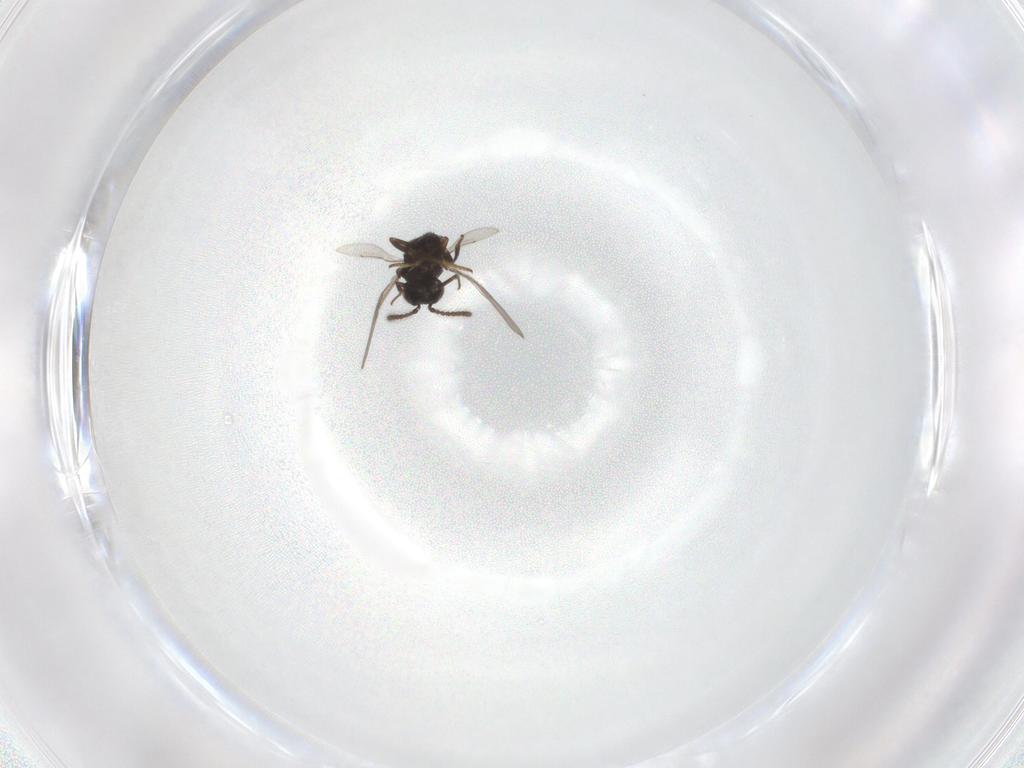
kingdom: Animalia
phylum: Arthropoda
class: Insecta
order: Hymenoptera
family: Encyrtidae
